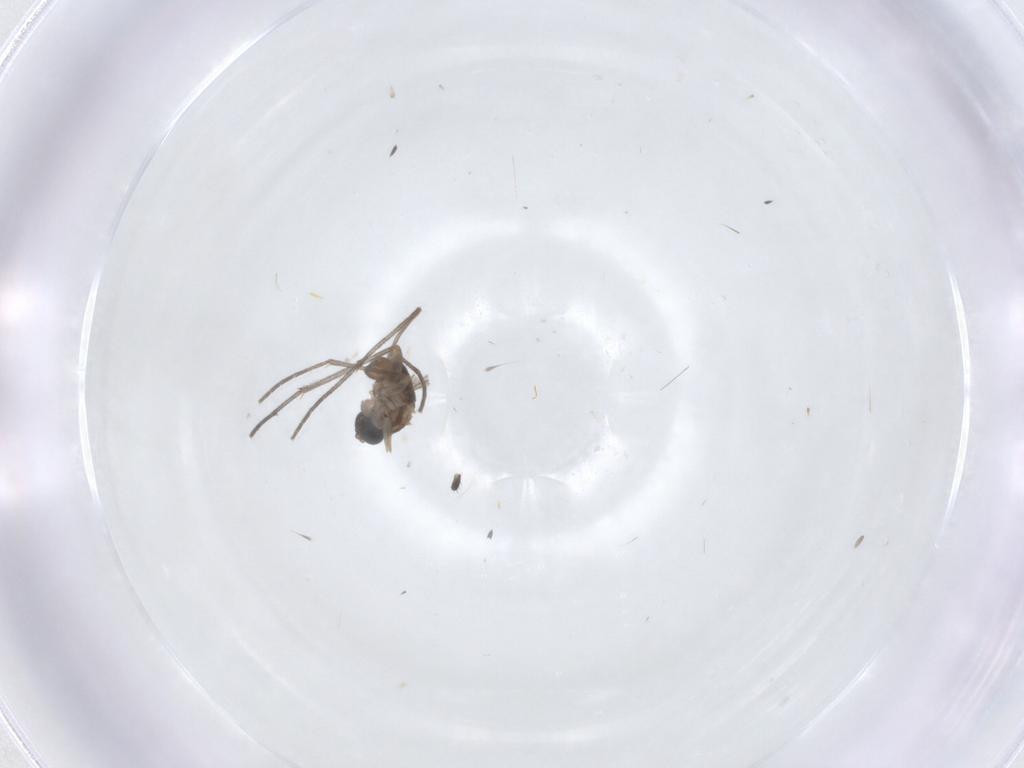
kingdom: Animalia
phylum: Arthropoda
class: Insecta
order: Diptera
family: Sciaridae
